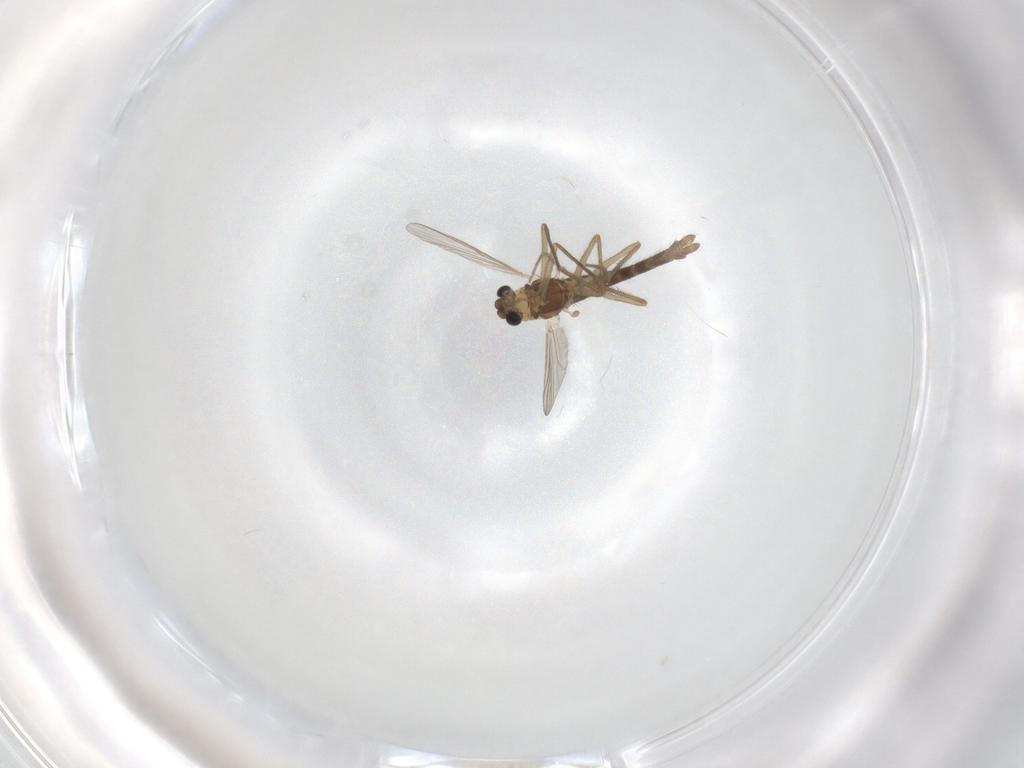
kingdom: Animalia
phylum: Arthropoda
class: Insecta
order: Diptera
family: Chironomidae
